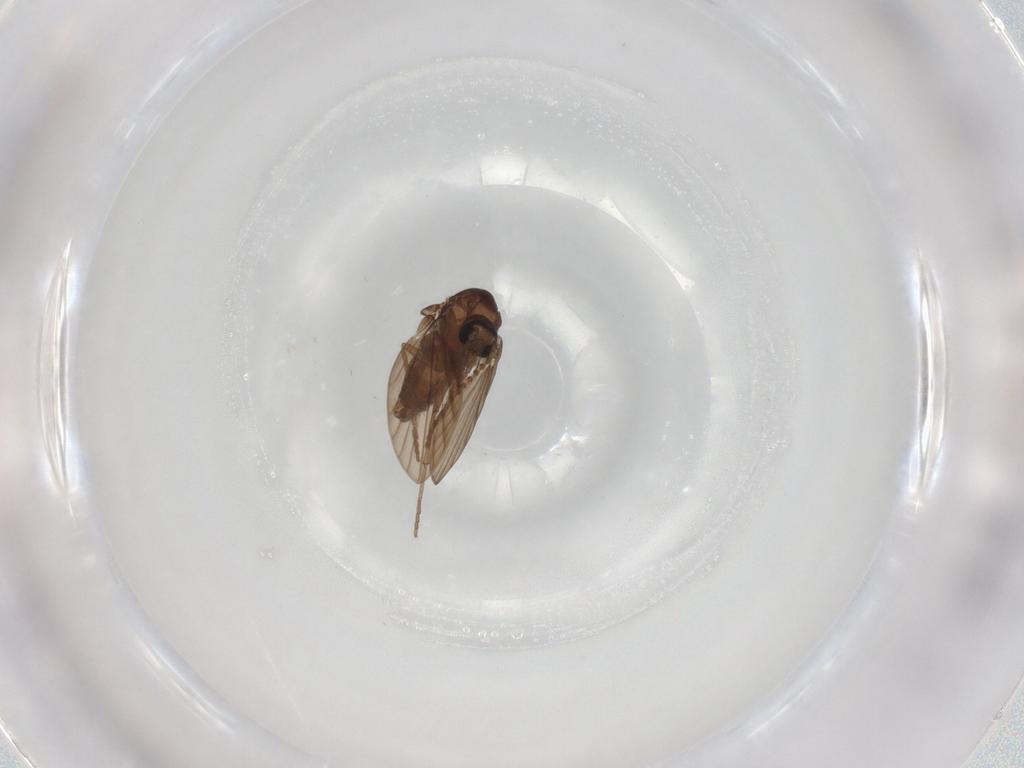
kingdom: Animalia
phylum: Arthropoda
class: Insecta
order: Diptera
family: Psychodidae
